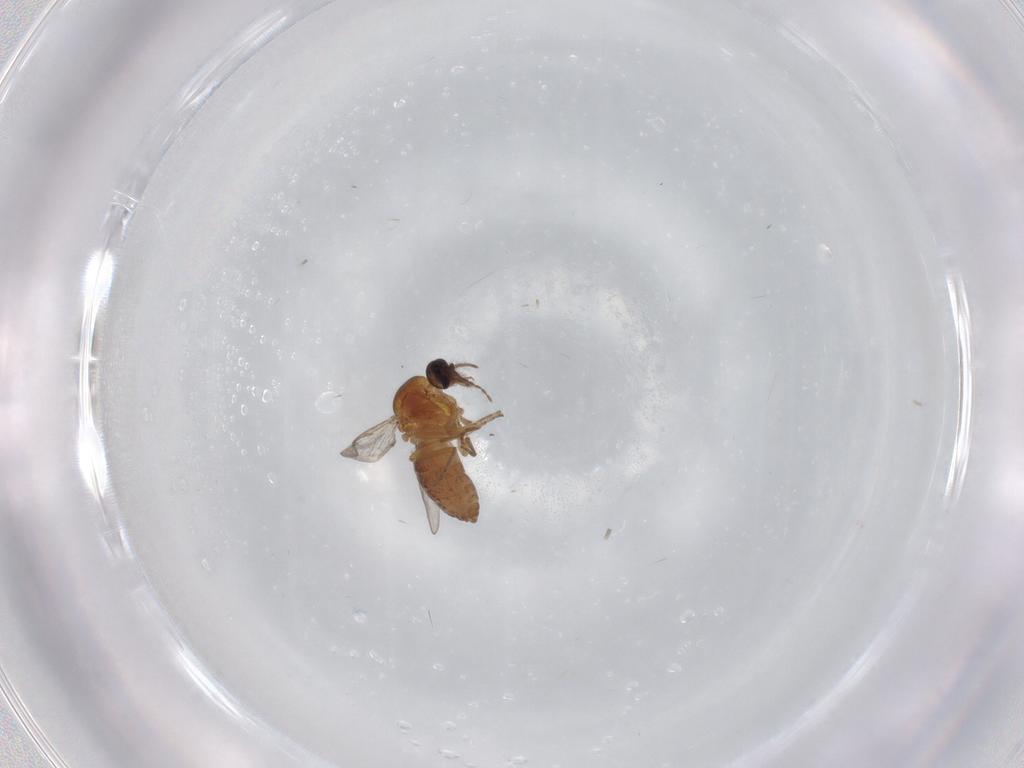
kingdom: Animalia
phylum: Arthropoda
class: Insecta
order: Diptera
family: Ceratopogonidae
